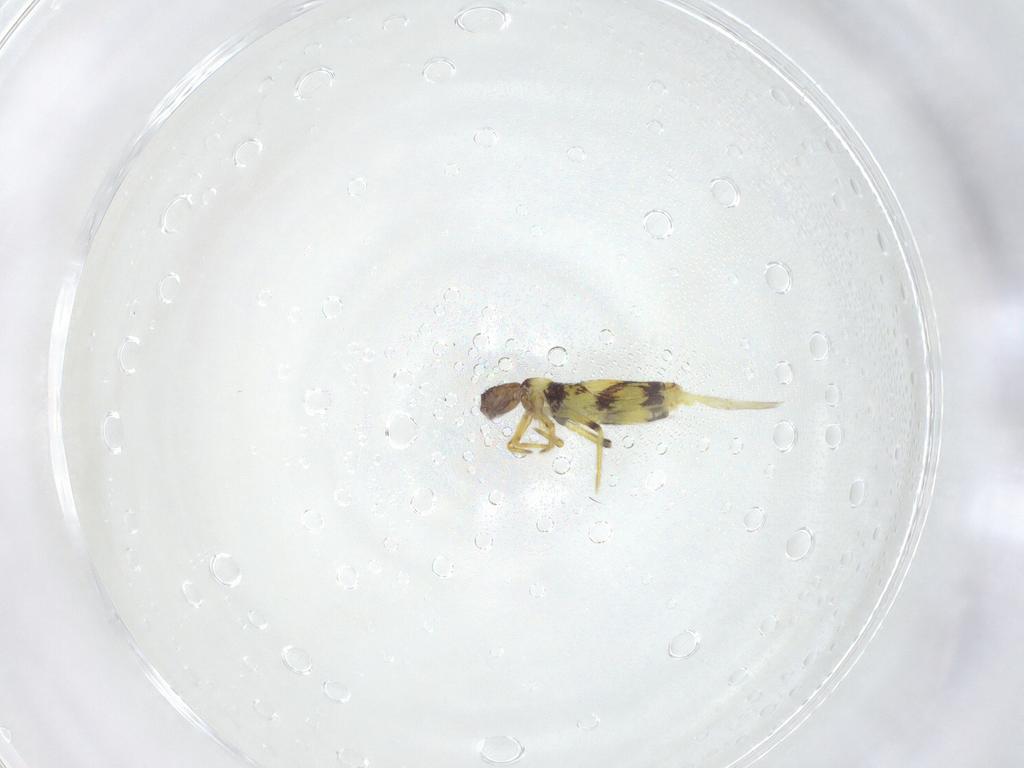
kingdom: Animalia
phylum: Arthropoda
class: Collembola
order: Entomobryomorpha
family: Entomobryidae
